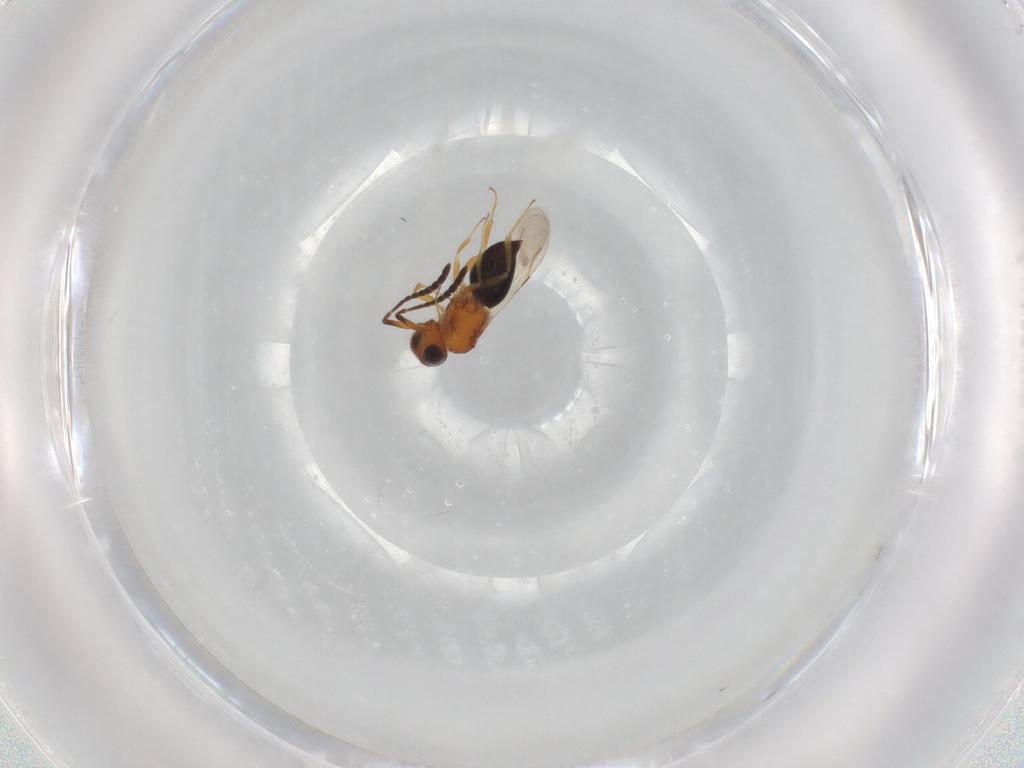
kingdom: Animalia
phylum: Arthropoda
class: Insecta
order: Hymenoptera
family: Ceraphronidae
